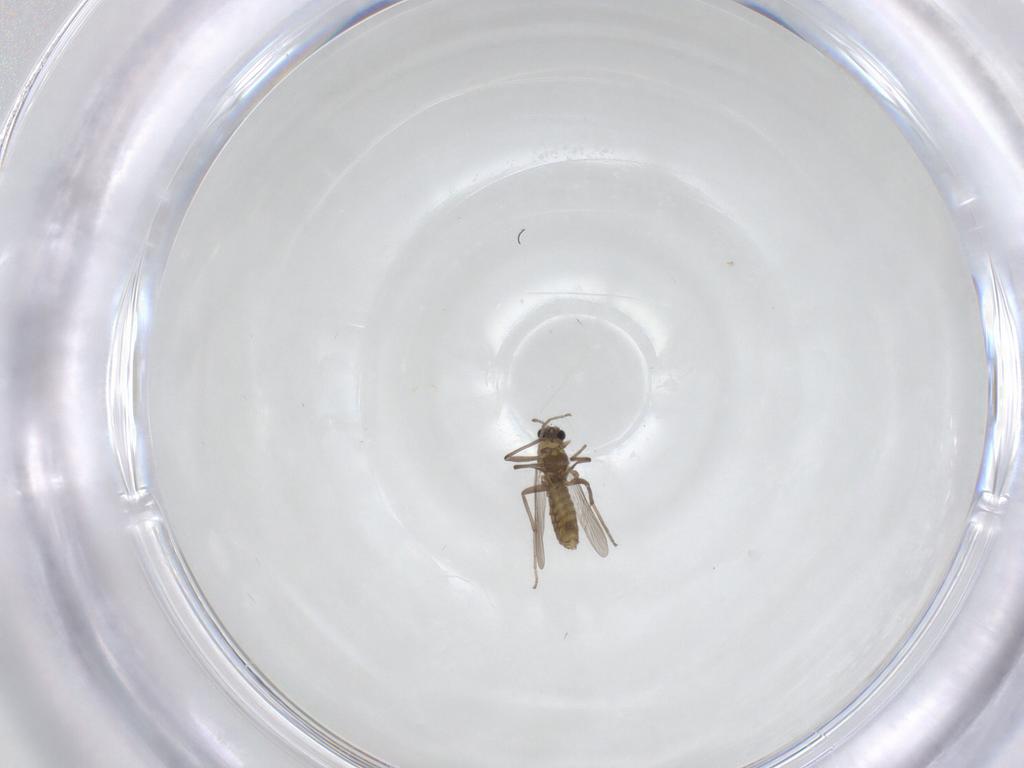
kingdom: Animalia
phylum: Arthropoda
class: Insecta
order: Diptera
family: Chironomidae
